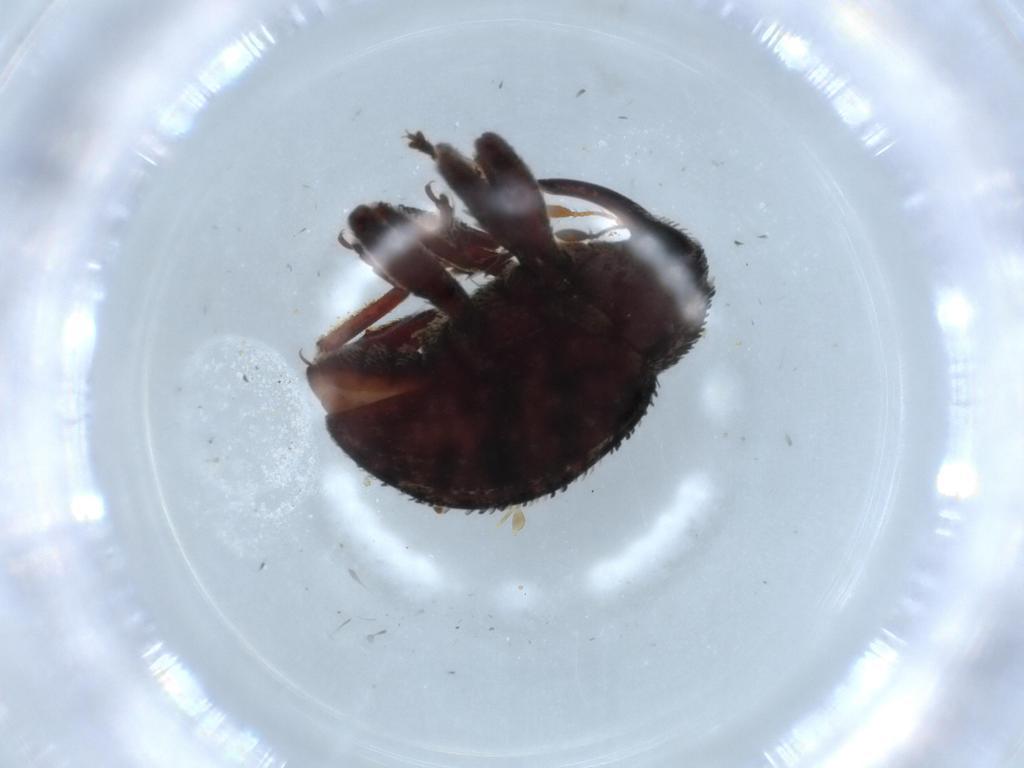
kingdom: Animalia
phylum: Arthropoda
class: Insecta
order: Coleoptera
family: Curculionidae
